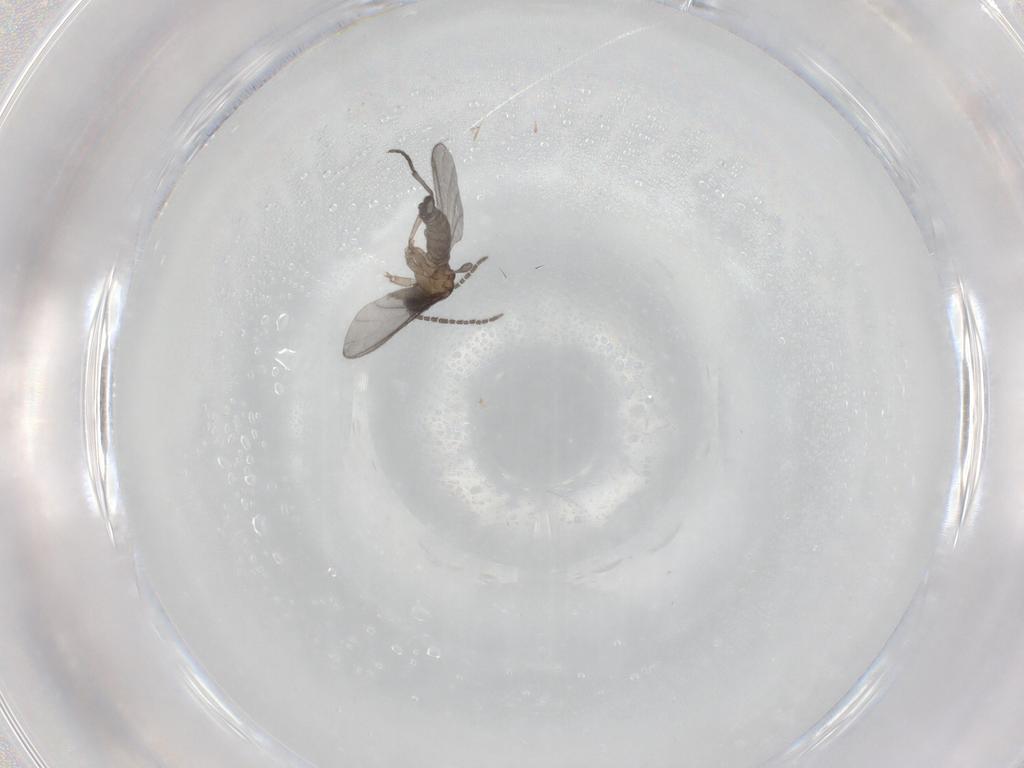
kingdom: Animalia
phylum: Arthropoda
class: Insecta
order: Diptera
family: Sciaridae
